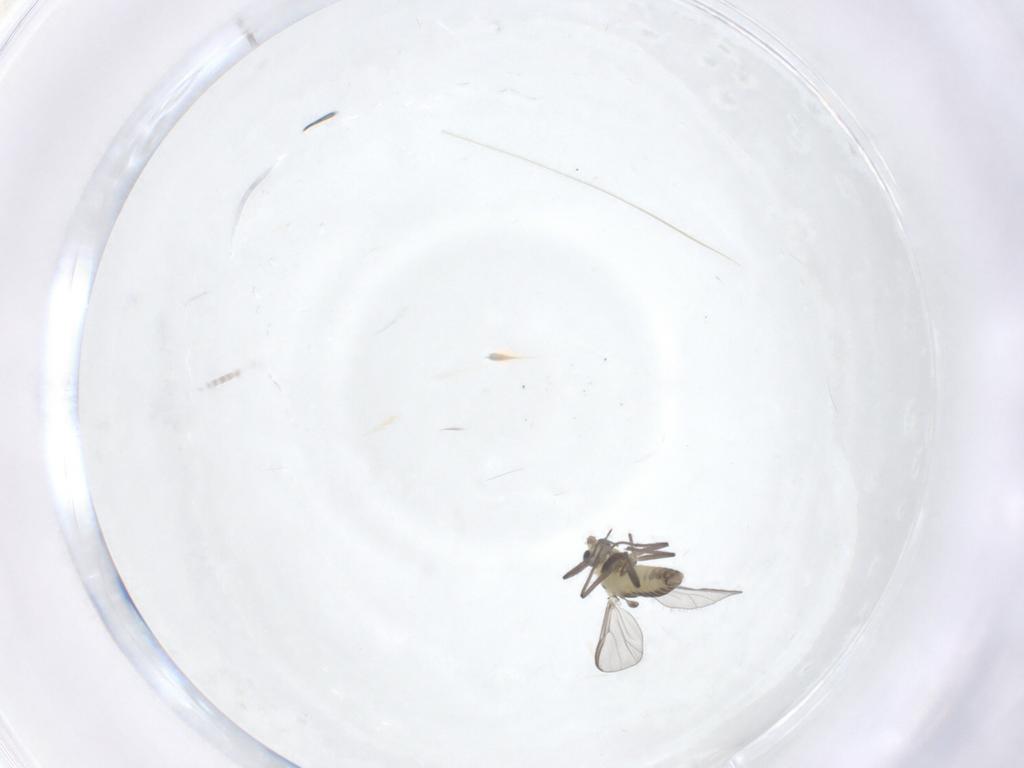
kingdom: Animalia
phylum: Arthropoda
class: Insecta
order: Diptera
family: Chironomidae
